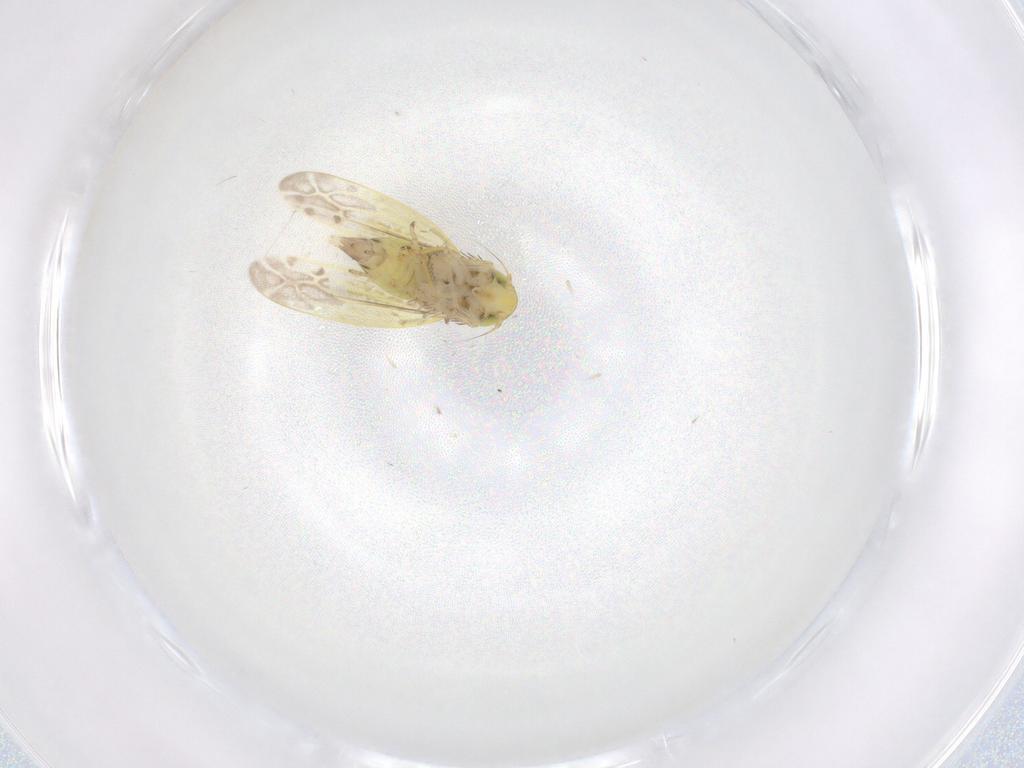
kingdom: Animalia
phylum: Arthropoda
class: Insecta
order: Hemiptera
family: Cicadellidae
